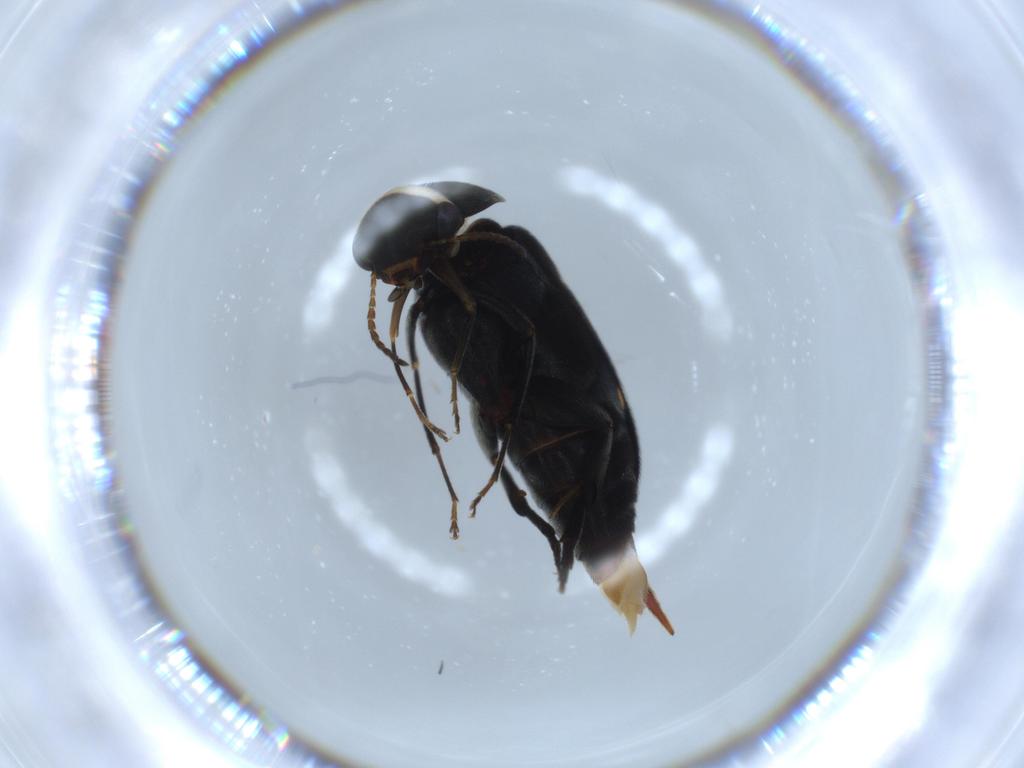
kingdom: Animalia
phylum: Arthropoda
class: Insecta
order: Coleoptera
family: Mordellidae
